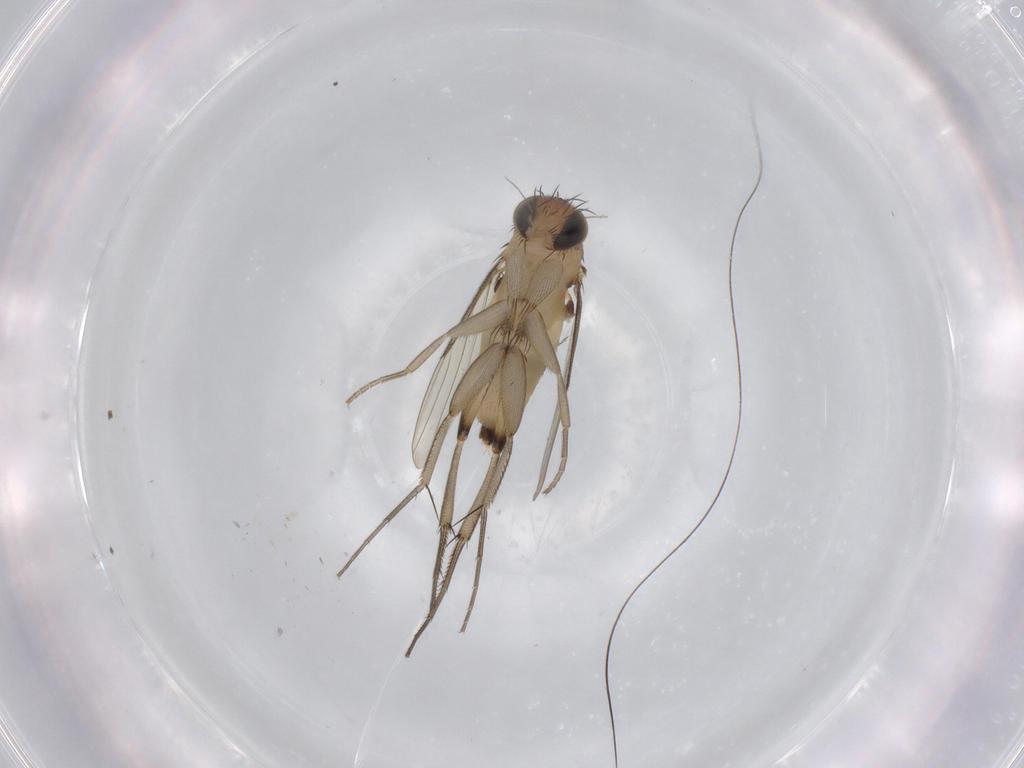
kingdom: Animalia
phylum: Arthropoda
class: Insecta
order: Diptera
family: Phoridae
